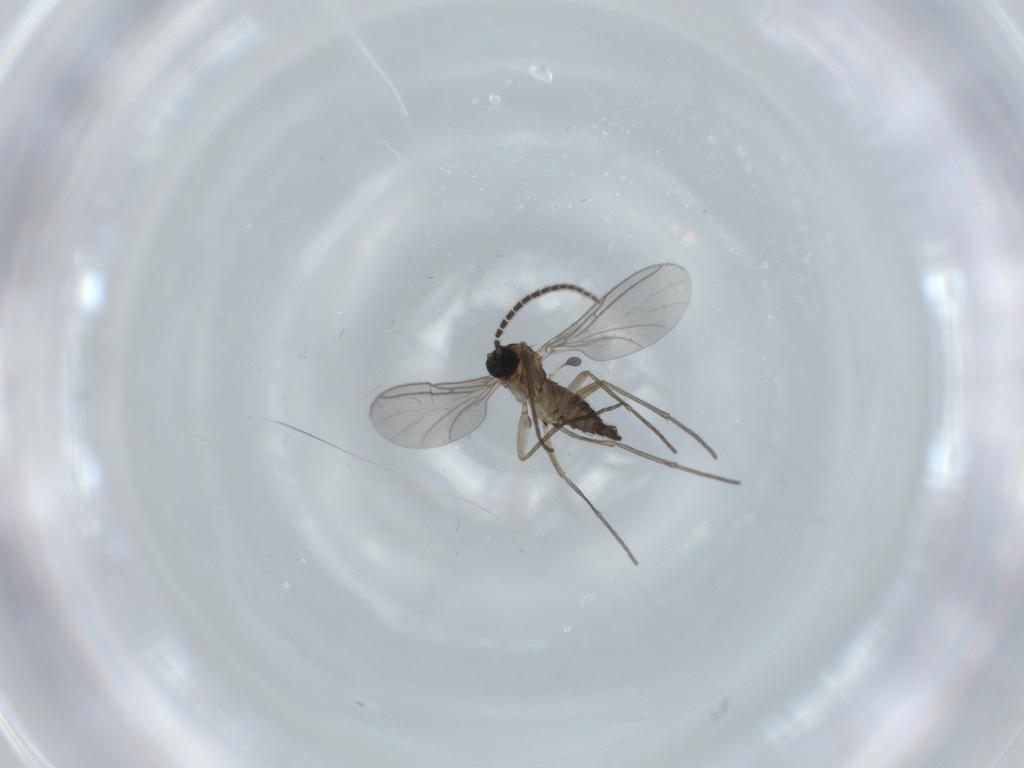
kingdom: Animalia
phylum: Arthropoda
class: Insecta
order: Diptera
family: Sciaridae
